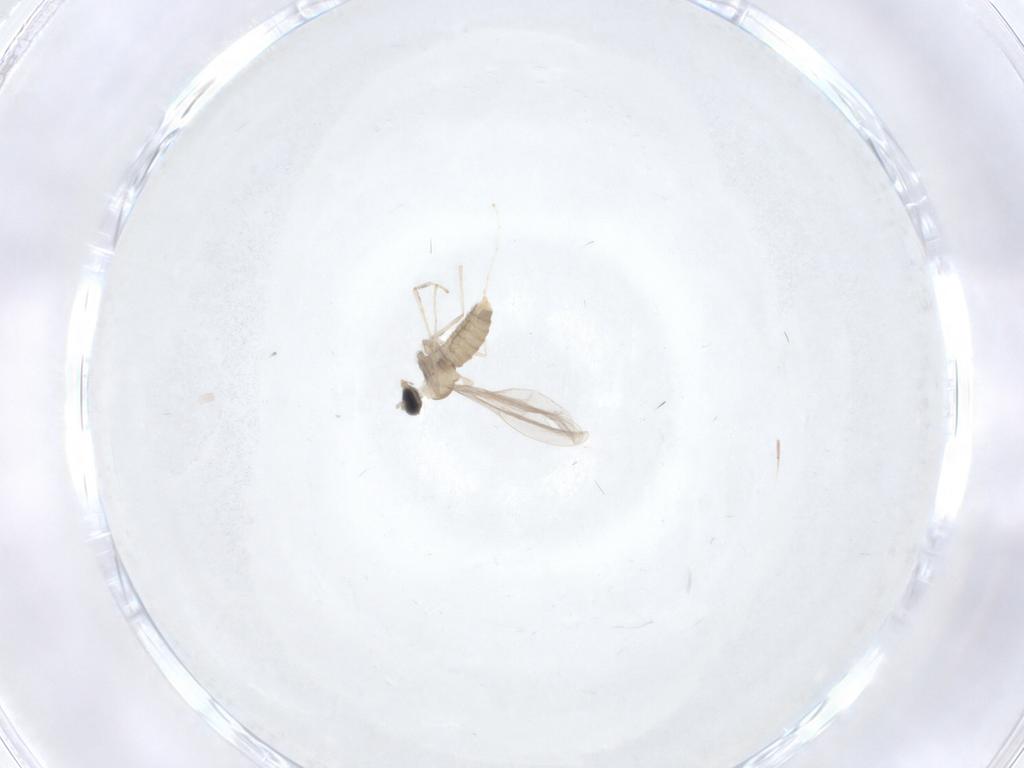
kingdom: Animalia
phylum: Arthropoda
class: Insecta
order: Diptera
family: Cecidomyiidae
